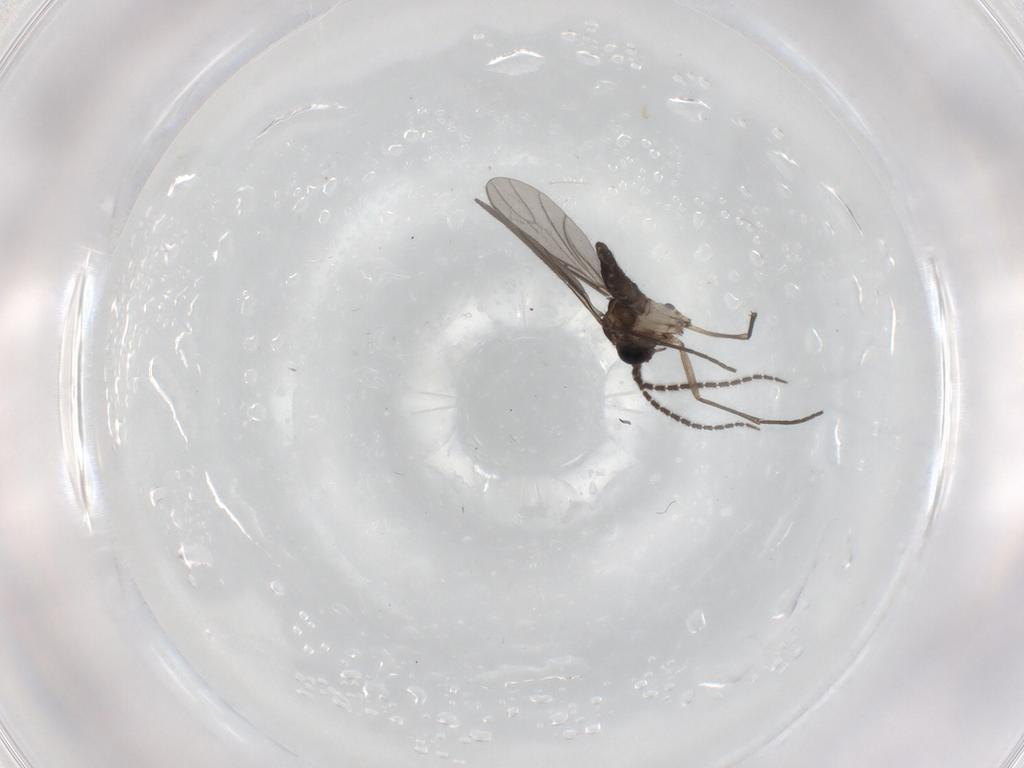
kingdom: Animalia
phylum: Arthropoda
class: Insecta
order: Diptera
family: Sciaridae
